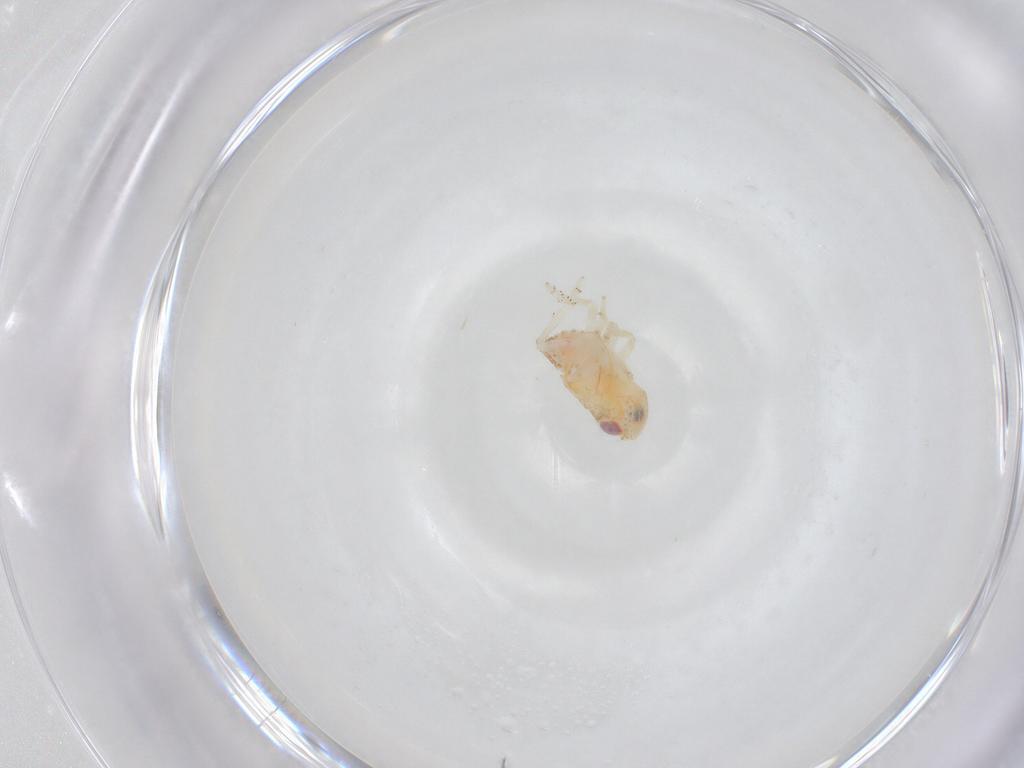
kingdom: Animalia
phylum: Arthropoda
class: Insecta
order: Hemiptera
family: Issidae
